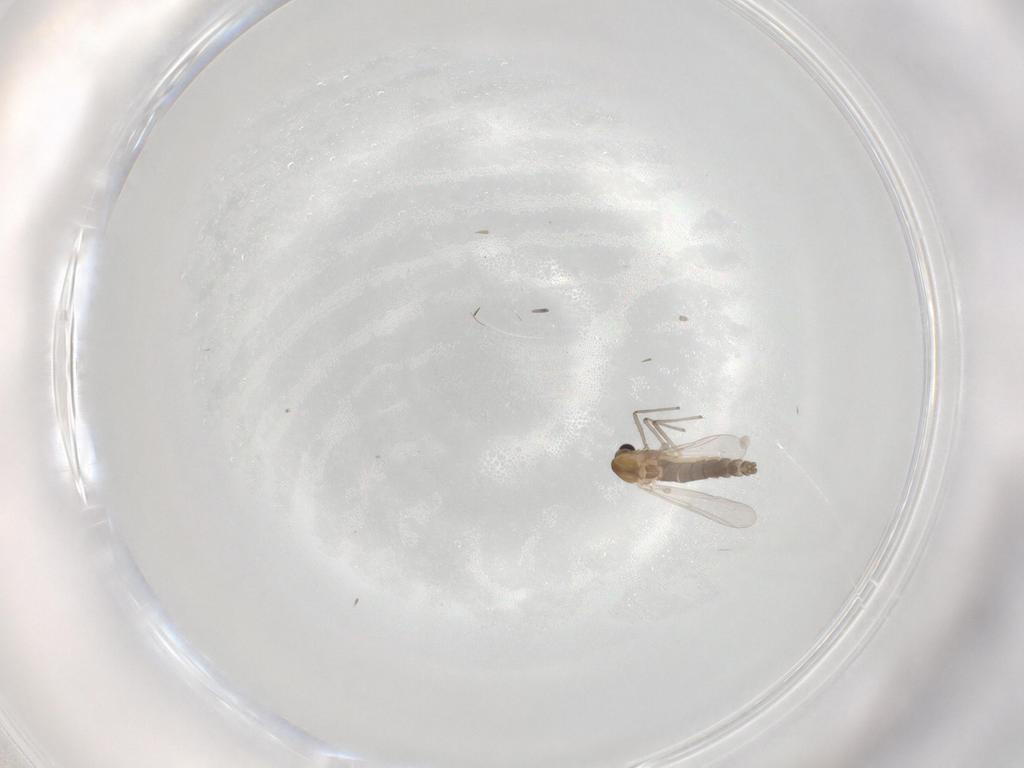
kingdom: Animalia
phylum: Arthropoda
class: Insecta
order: Diptera
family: Chironomidae
